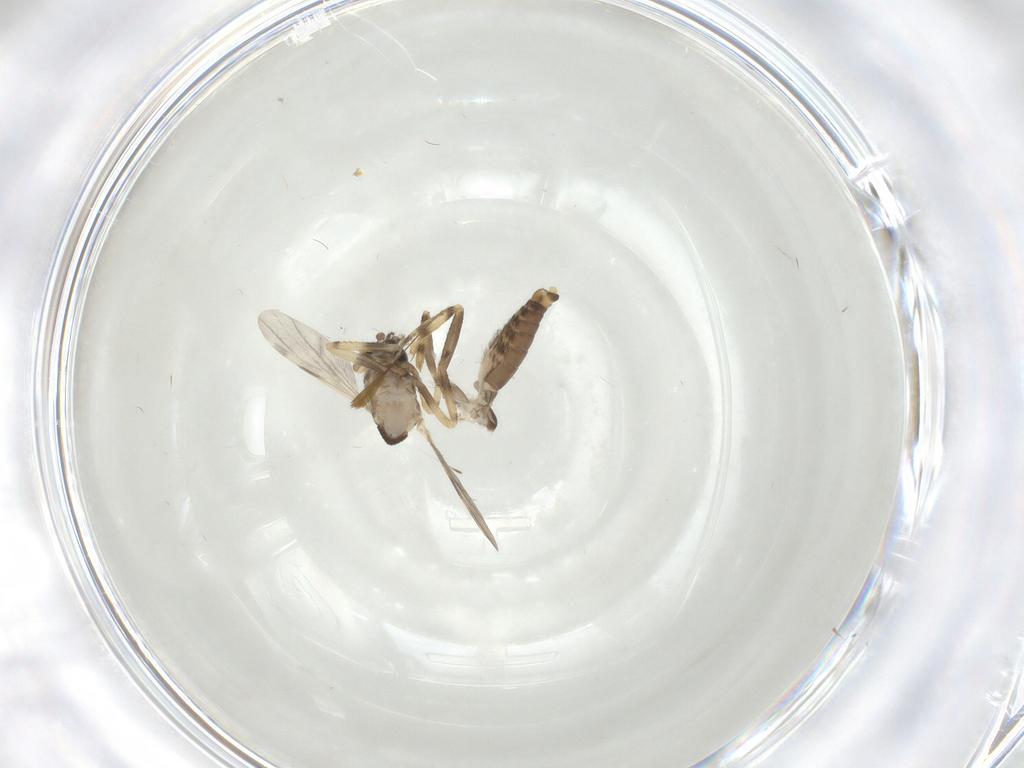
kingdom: Animalia
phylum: Arthropoda
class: Insecta
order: Diptera
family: Ceratopogonidae
